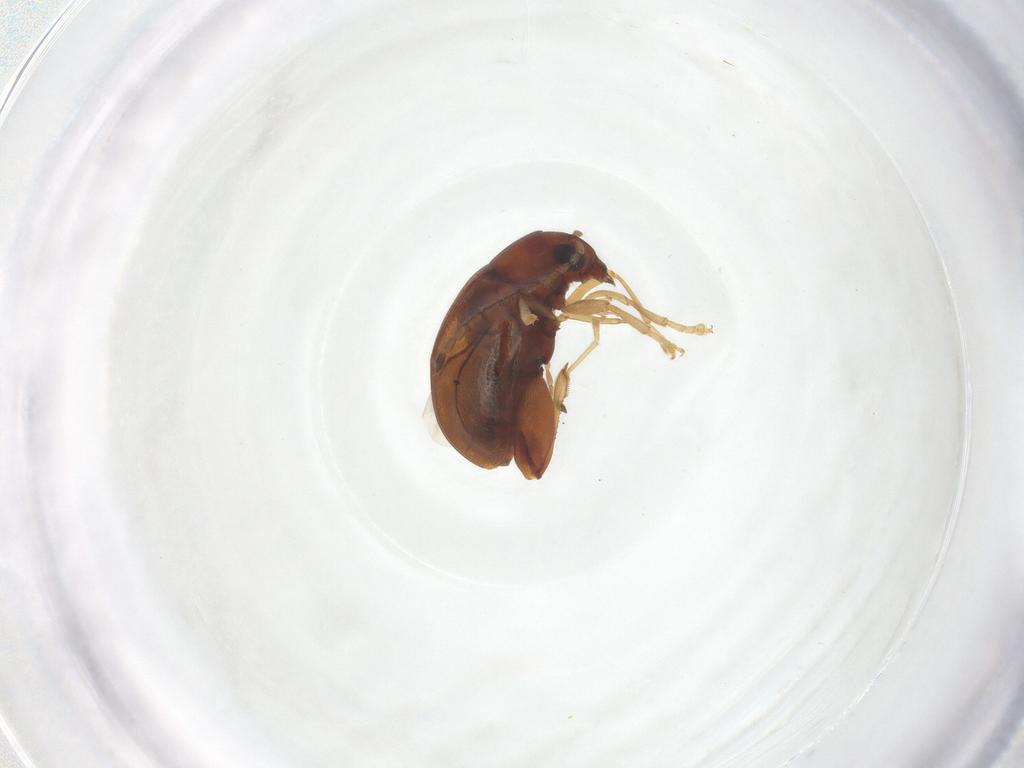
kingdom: Animalia
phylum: Arthropoda
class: Insecta
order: Coleoptera
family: Chrysomelidae
